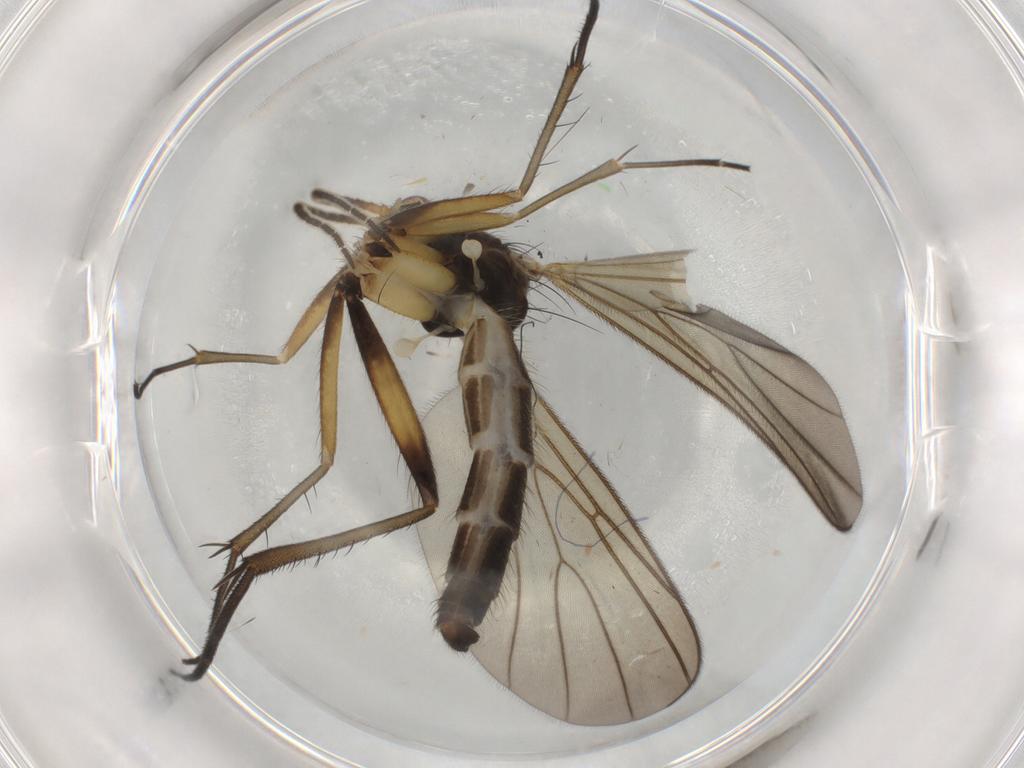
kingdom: Animalia
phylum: Arthropoda
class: Insecta
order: Diptera
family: Mycetophilidae
